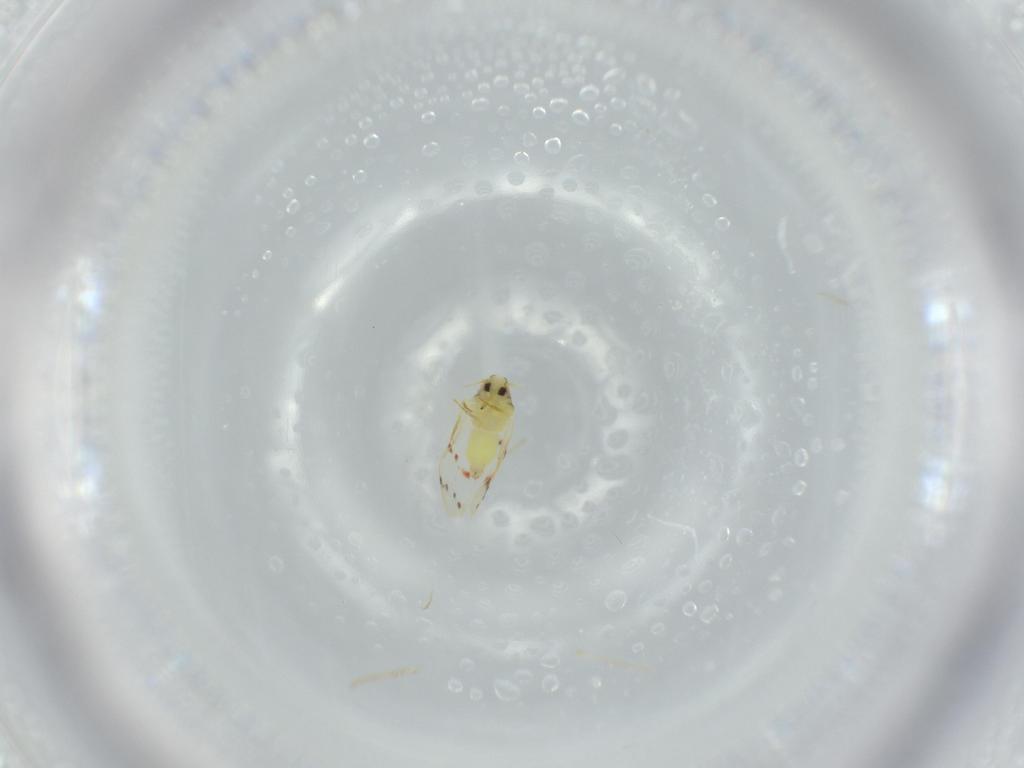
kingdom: Animalia
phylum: Arthropoda
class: Insecta
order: Hemiptera
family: Aleyrodidae
